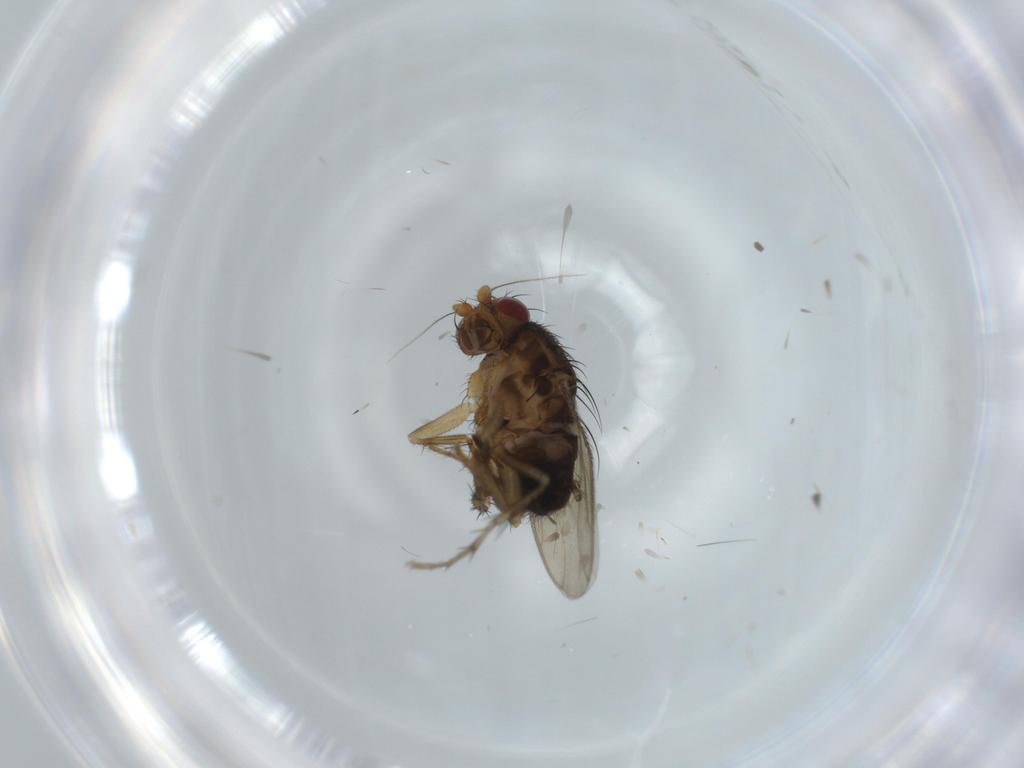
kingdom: Animalia
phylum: Arthropoda
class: Insecta
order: Diptera
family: Sphaeroceridae
